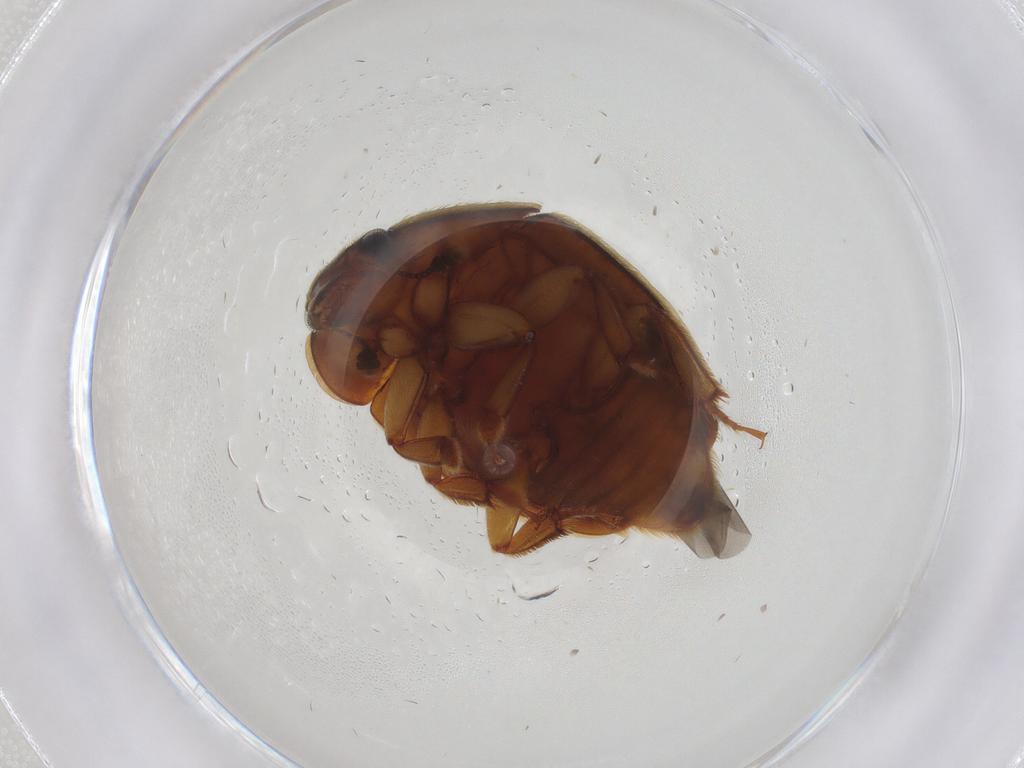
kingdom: Animalia
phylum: Arthropoda
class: Insecta
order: Coleoptera
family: Nitidulidae
